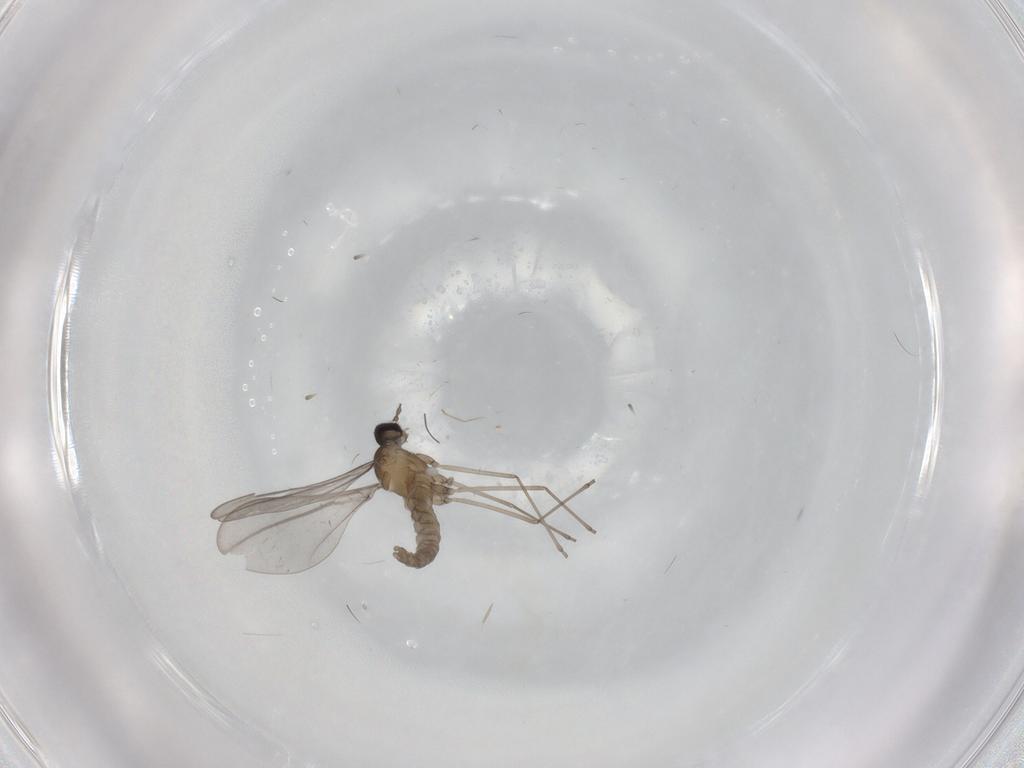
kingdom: Animalia
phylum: Arthropoda
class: Insecta
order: Diptera
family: Cecidomyiidae
